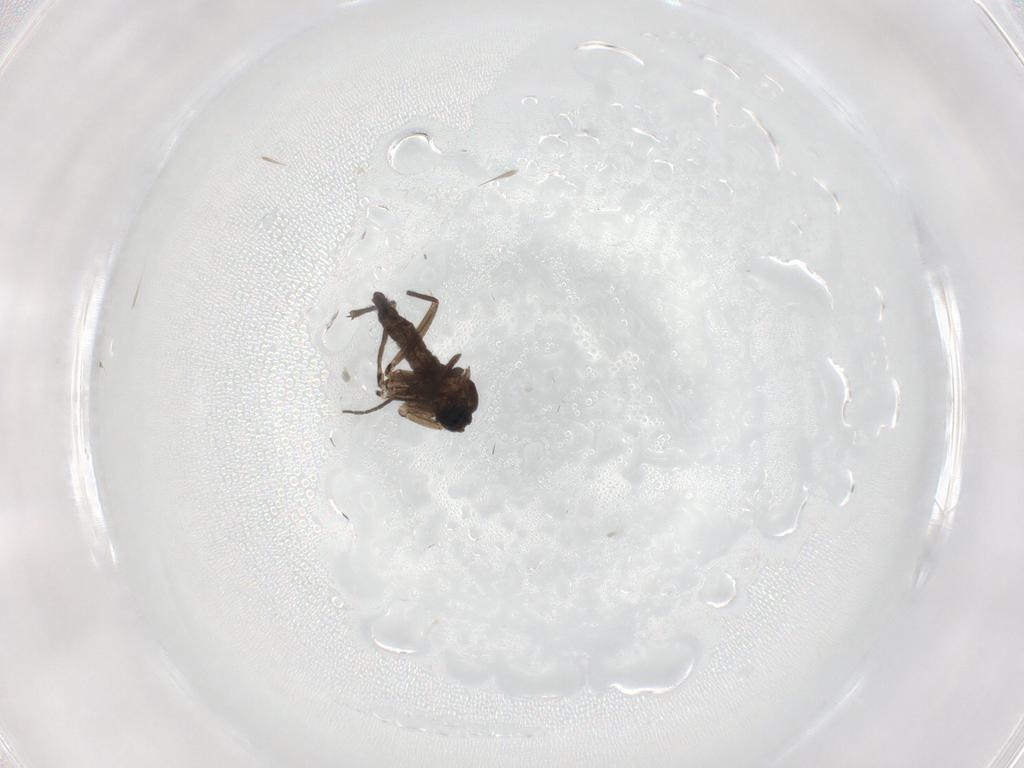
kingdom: Animalia
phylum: Arthropoda
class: Insecta
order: Diptera
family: Sciaridae
